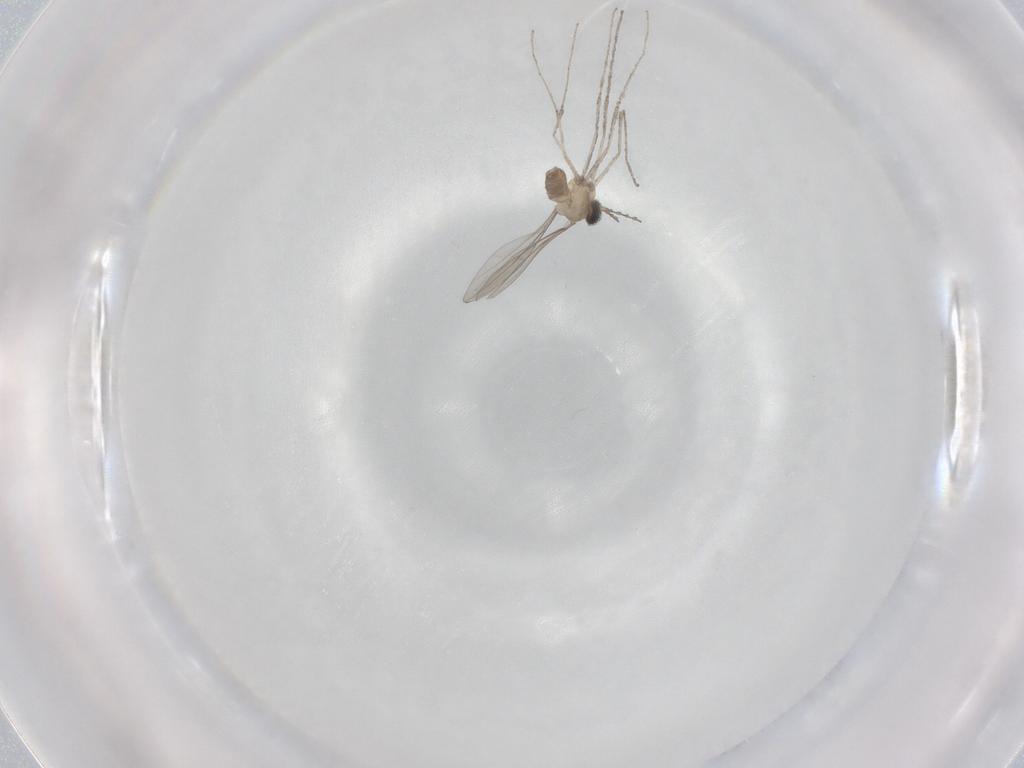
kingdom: Animalia
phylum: Arthropoda
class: Insecta
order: Diptera
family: Cecidomyiidae
